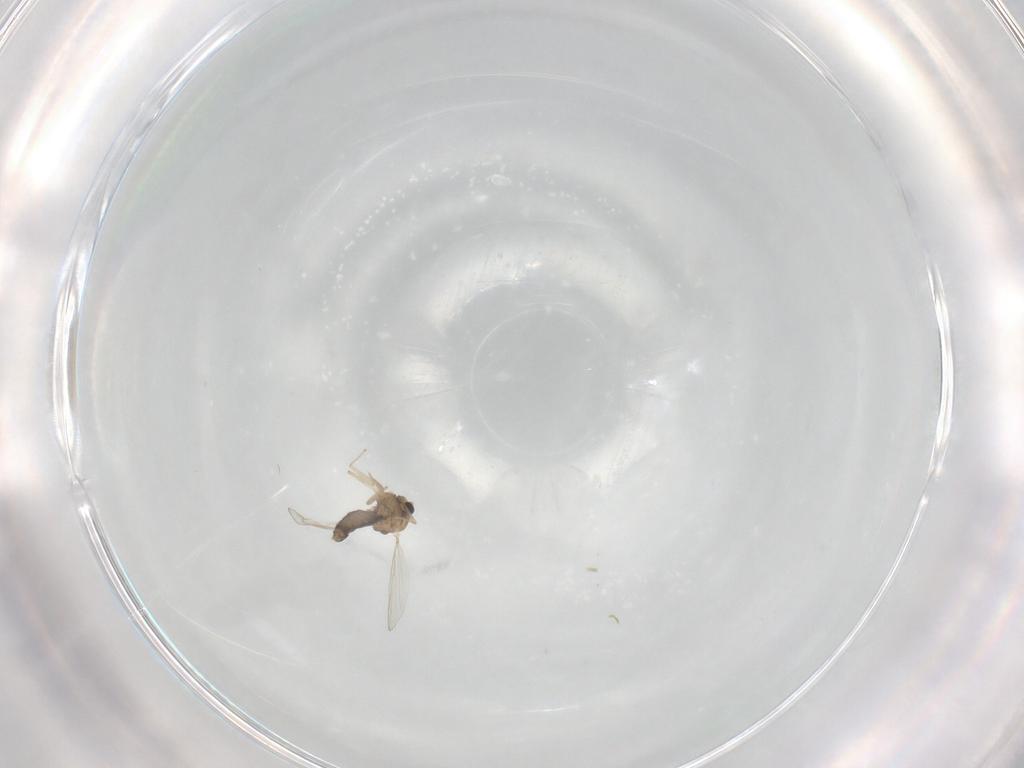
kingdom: Animalia
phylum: Arthropoda
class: Insecta
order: Diptera
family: Chironomidae
